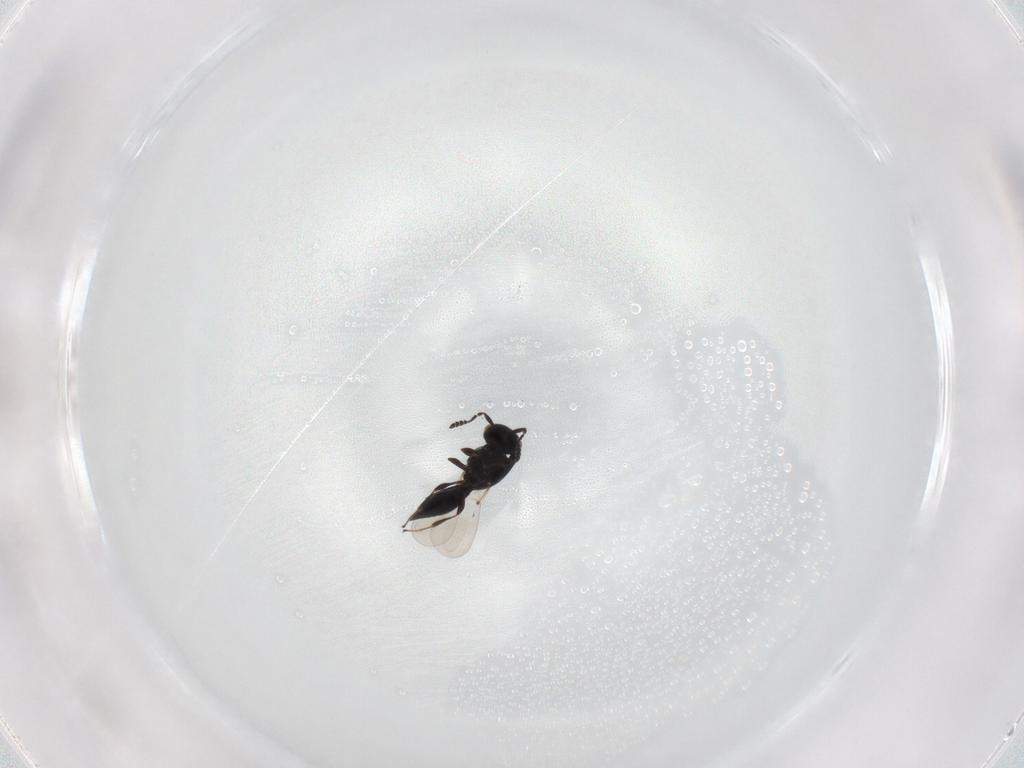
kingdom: Animalia
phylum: Arthropoda
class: Insecta
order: Hymenoptera
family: Platygastridae
